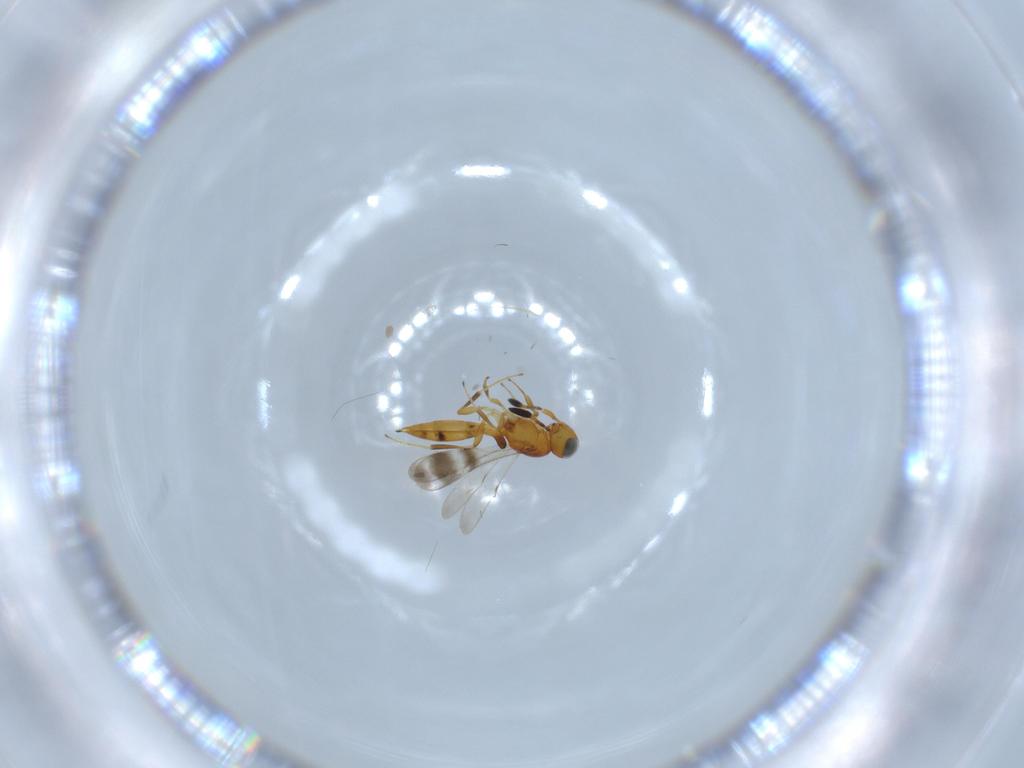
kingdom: Animalia
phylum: Arthropoda
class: Insecta
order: Hymenoptera
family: Scelionidae
